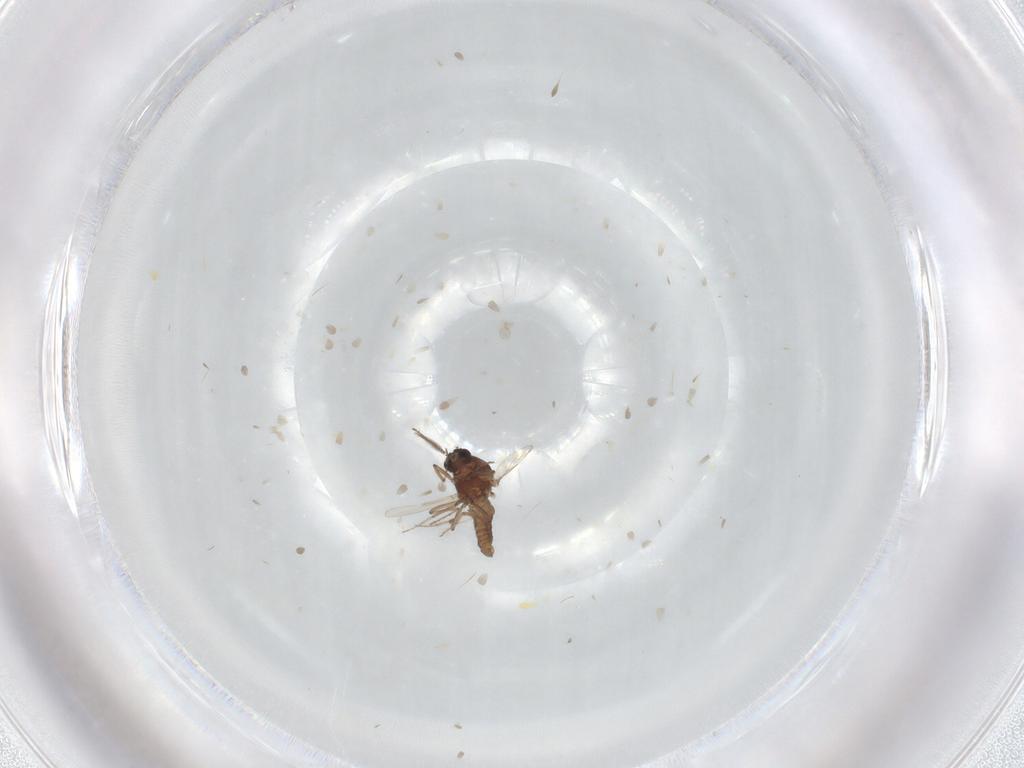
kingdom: Animalia
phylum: Arthropoda
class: Insecta
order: Diptera
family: Ceratopogonidae
